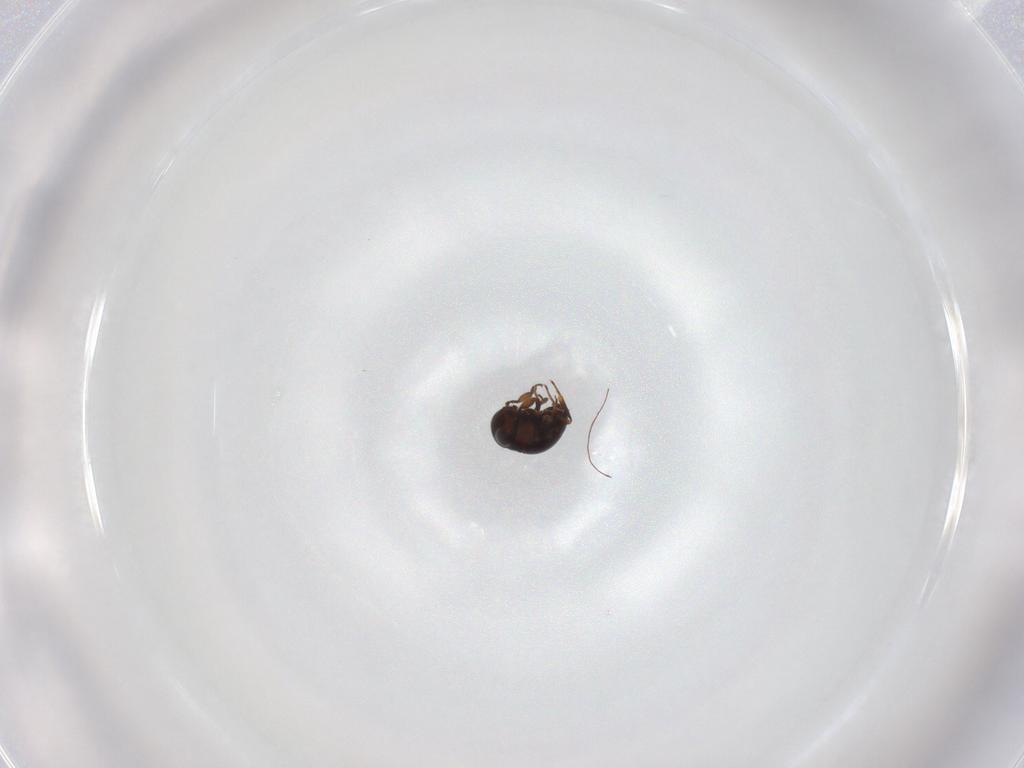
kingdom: Animalia
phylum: Arthropoda
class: Insecta
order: Hymenoptera
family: Scelionidae
